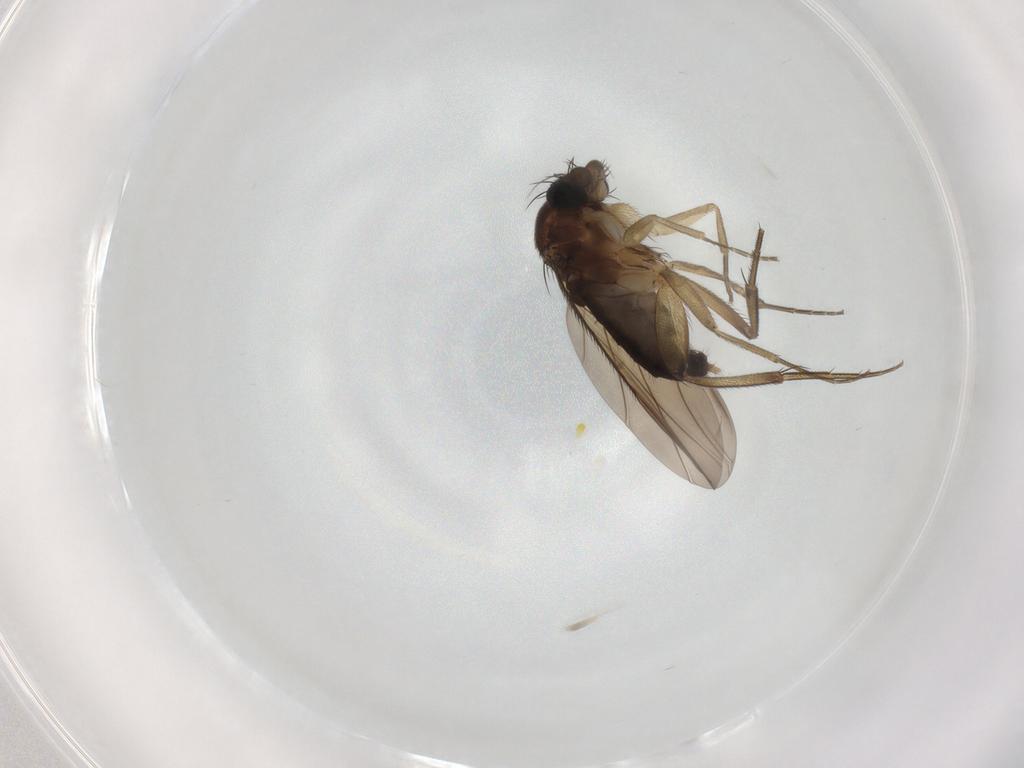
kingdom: Animalia
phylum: Arthropoda
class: Insecta
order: Diptera
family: Phoridae
